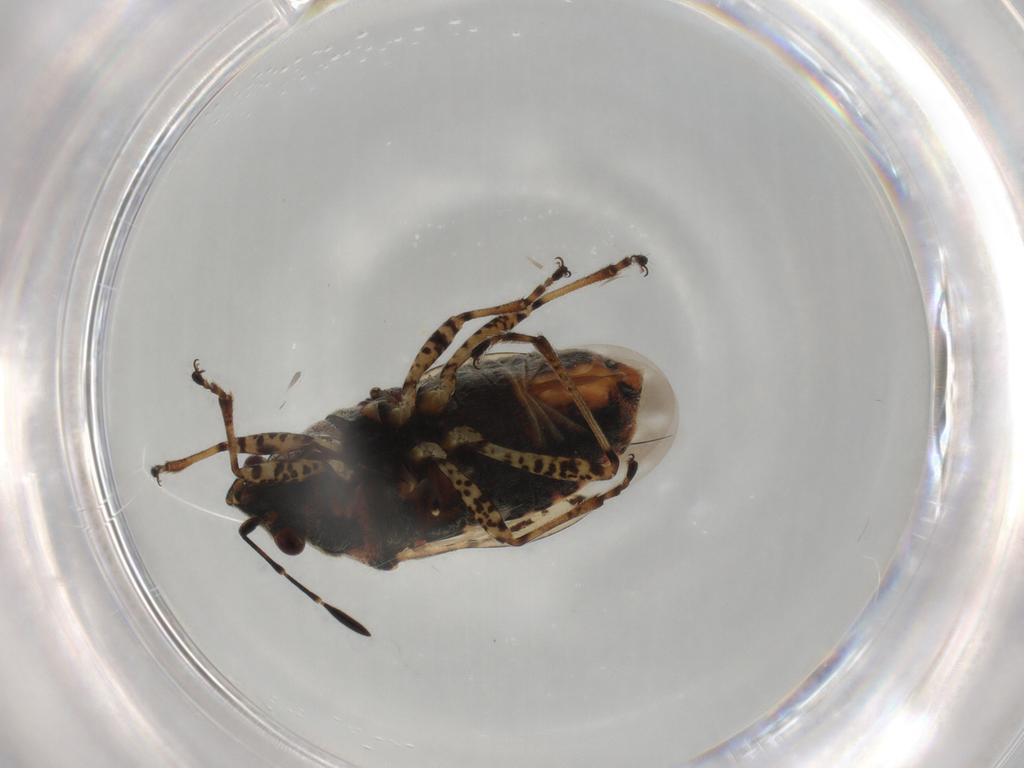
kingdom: Animalia
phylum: Arthropoda
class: Insecta
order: Hemiptera
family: Lygaeidae
